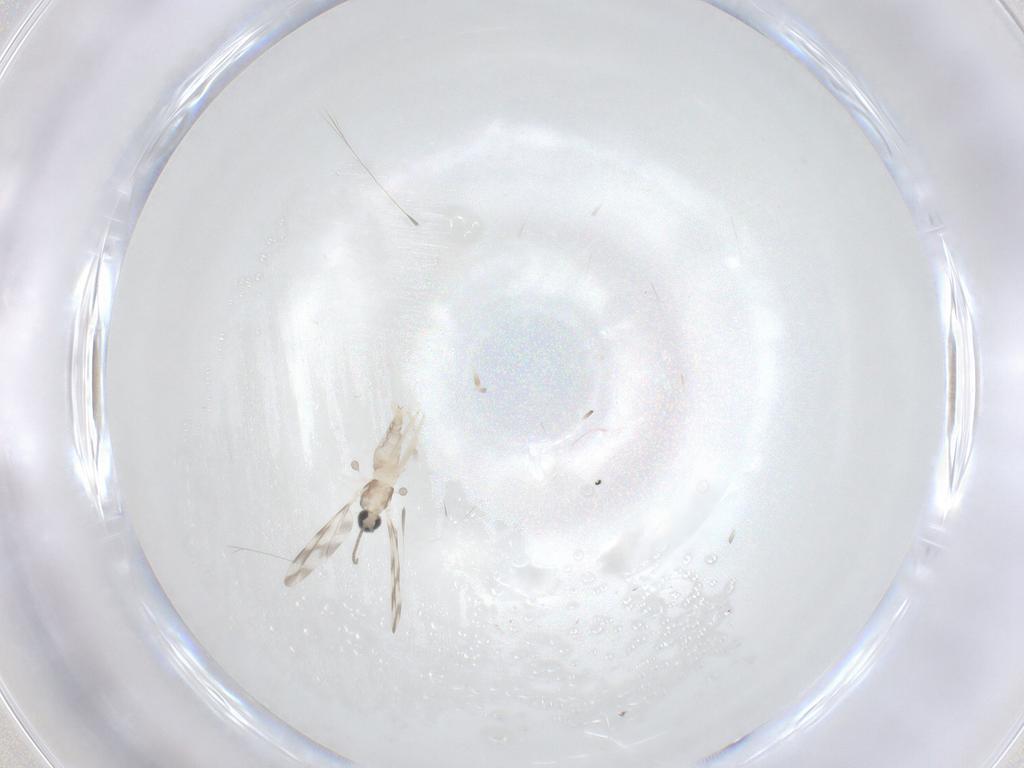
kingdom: Animalia
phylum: Arthropoda
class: Insecta
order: Diptera
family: Cecidomyiidae
